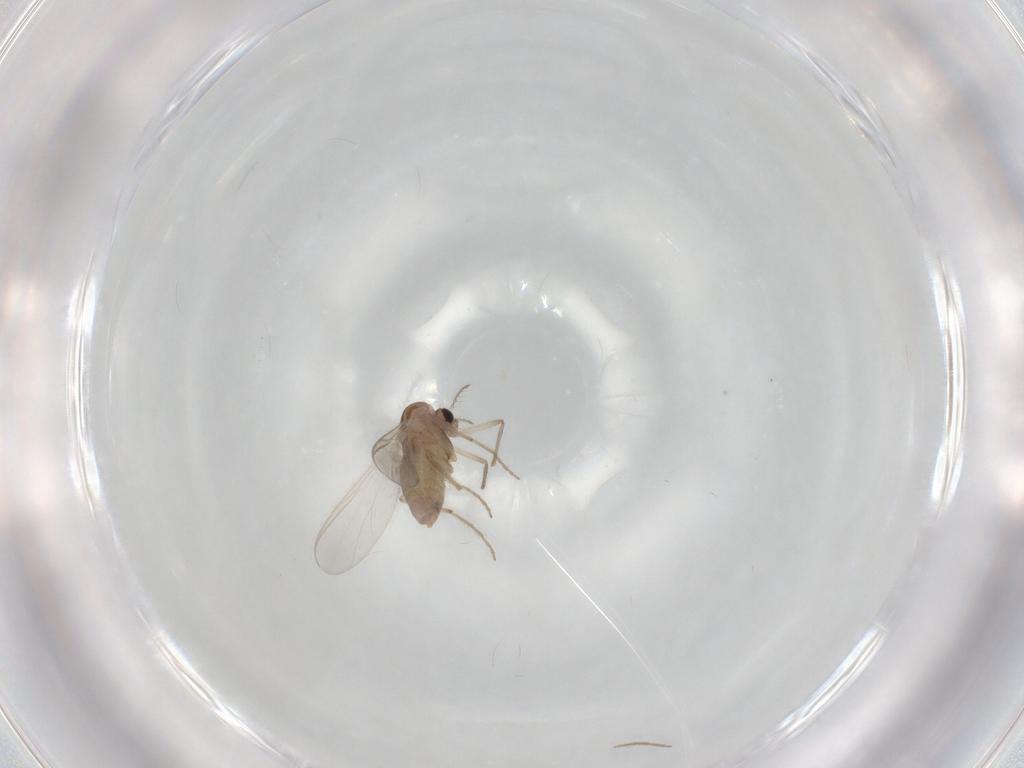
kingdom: Animalia
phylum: Arthropoda
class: Insecta
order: Diptera
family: Chironomidae
